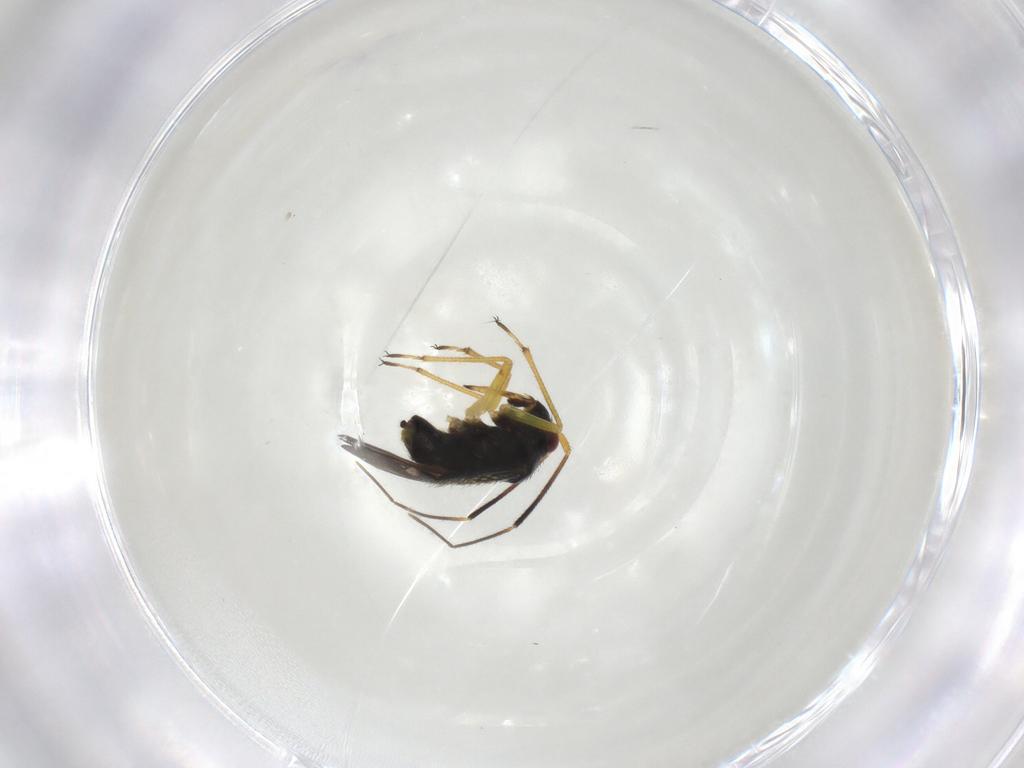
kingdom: Animalia
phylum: Arthropoda
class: Insecta
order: Hemiptera
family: Miridae
